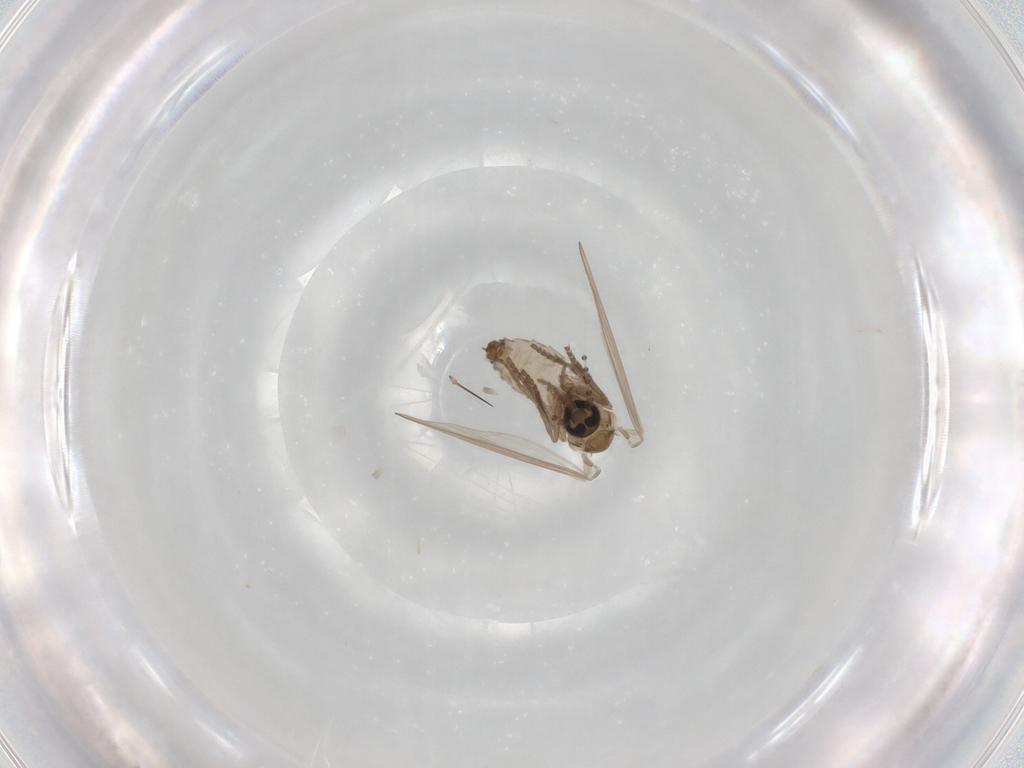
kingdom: Animalia
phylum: Arthropoda
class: Insecta
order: Diptera
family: Psychodidae
